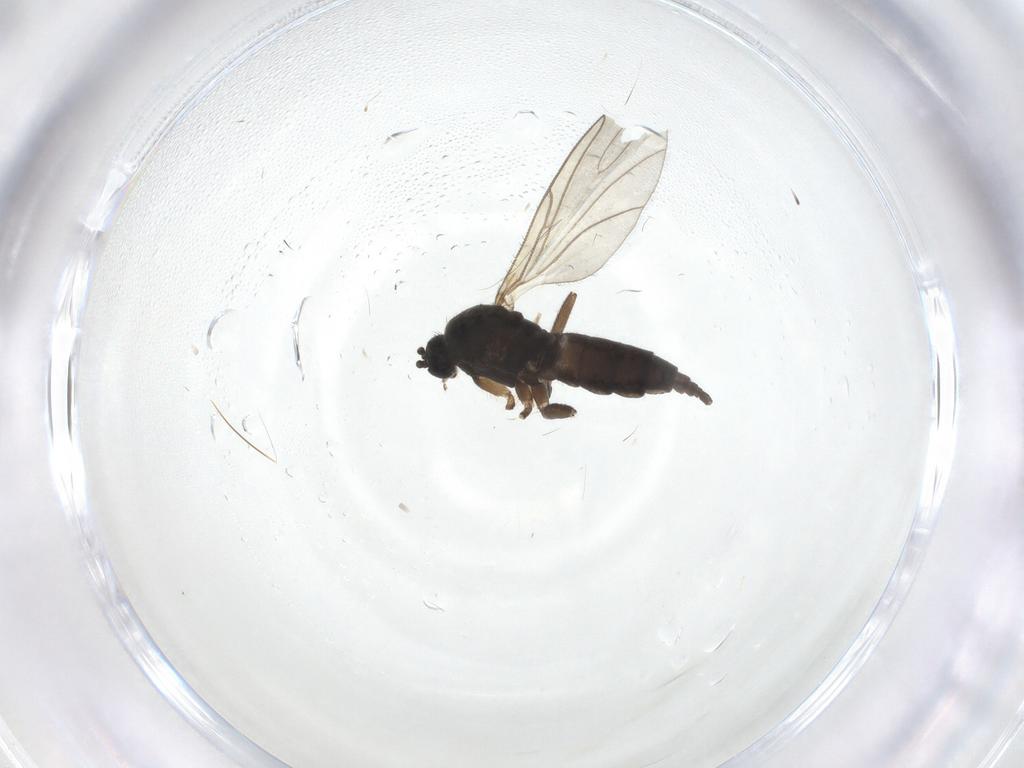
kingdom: Animalia
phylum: Arthropoda
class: Insecta
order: Diptera
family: Sciaridae
